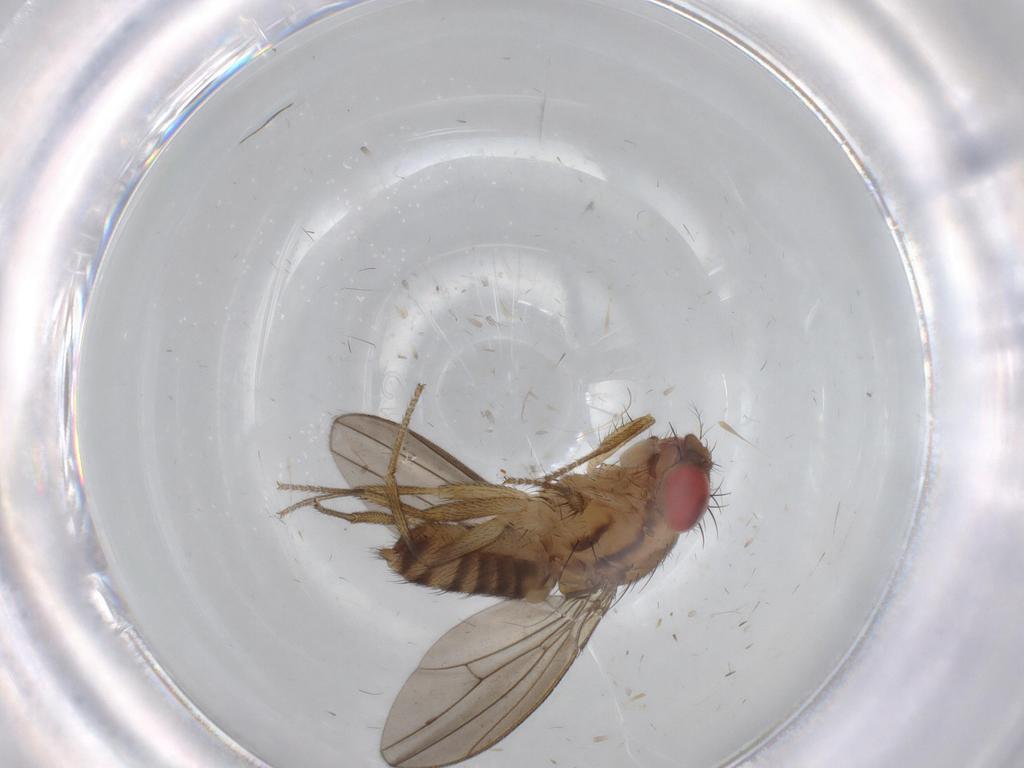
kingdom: Animalia
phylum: Arthropoda
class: Insecta
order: Diptera
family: Drosophilidae
